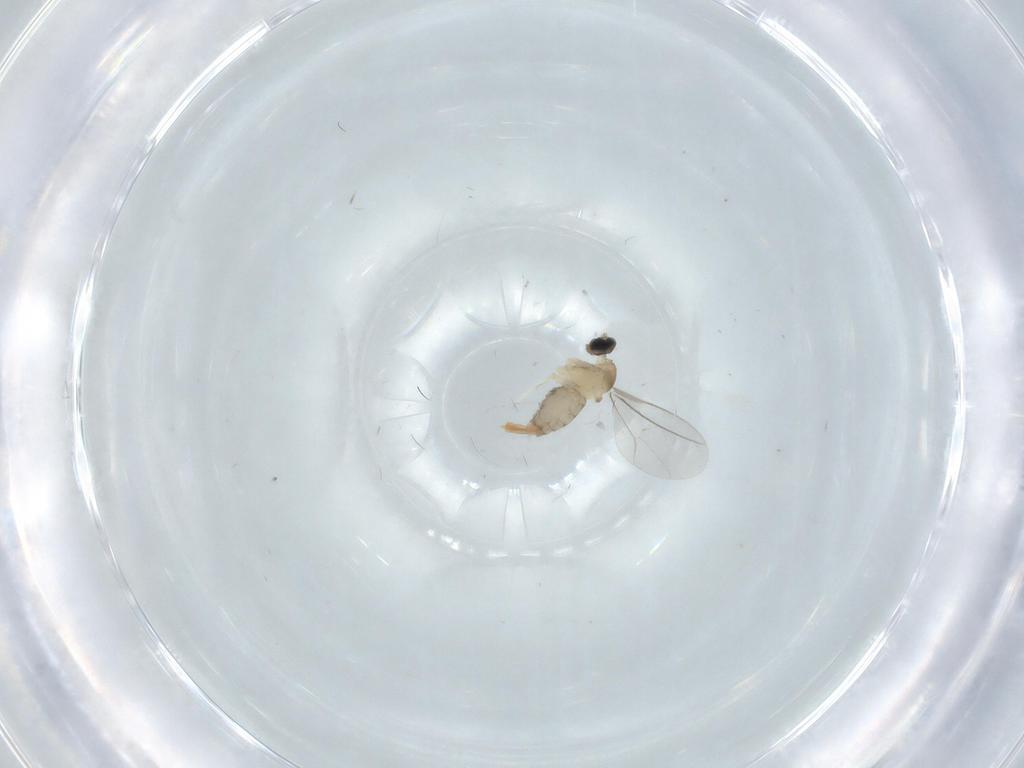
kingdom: Animalia
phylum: Arthropoda
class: Insecta
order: Diptera
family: Cecidomyiidae
